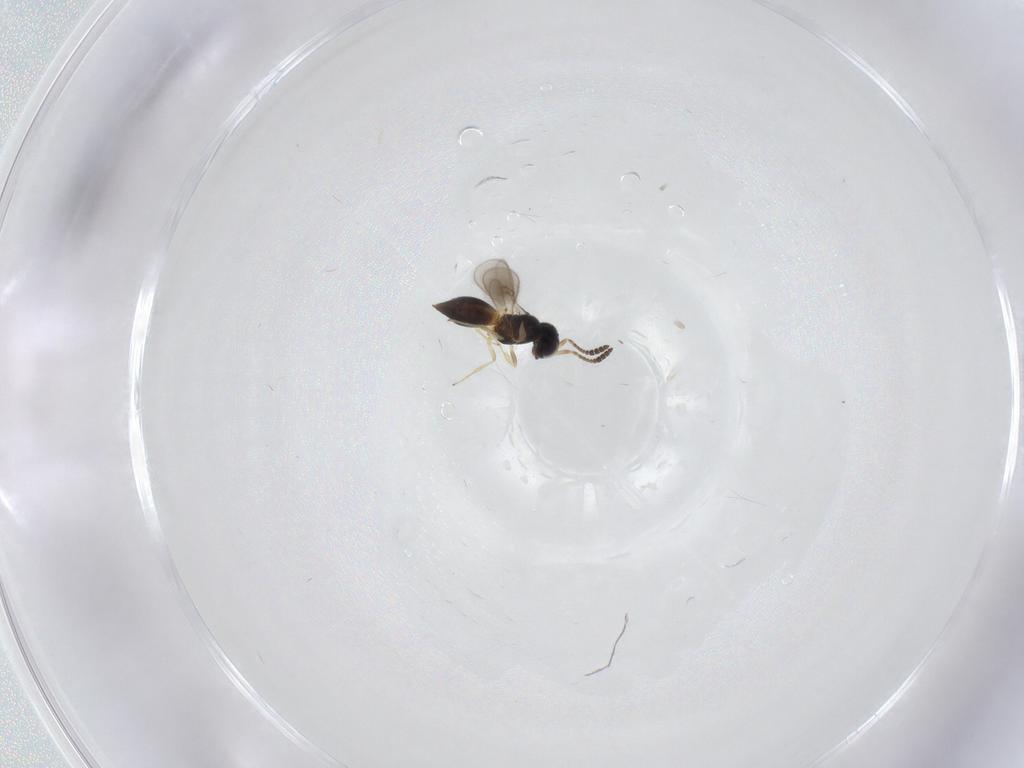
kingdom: Animalia
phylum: Arthropoda
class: Insecta
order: Hymenoptera
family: Scelionidae
